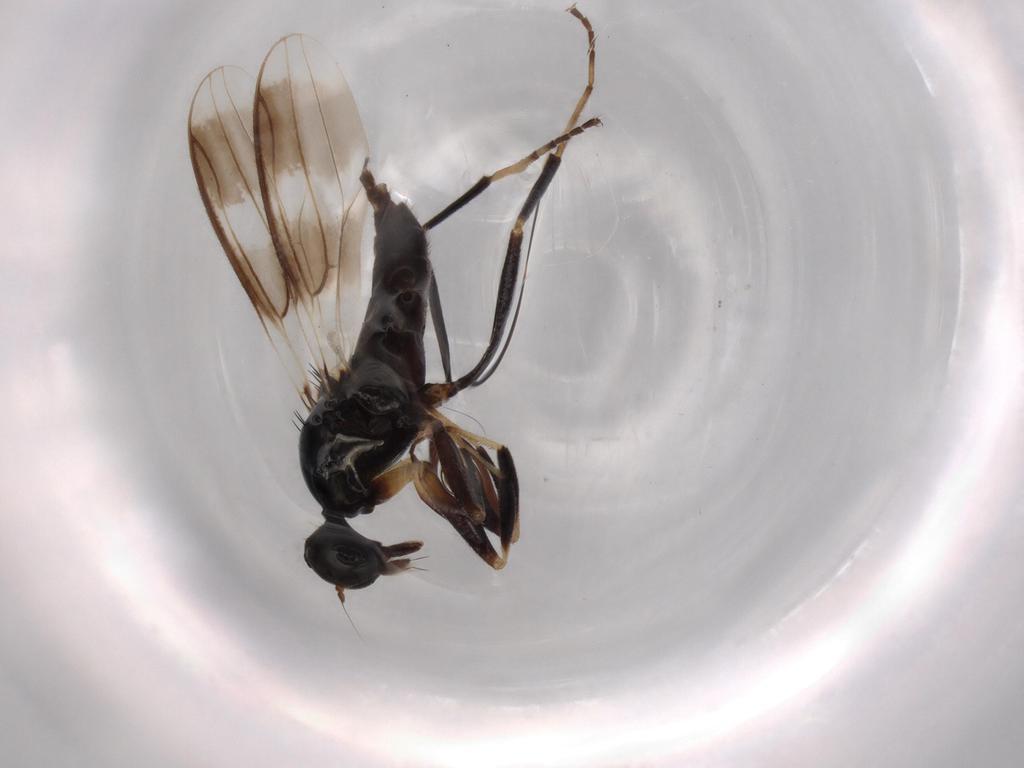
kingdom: Animalia
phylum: Arthropoda
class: Insecta
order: Diptera
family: Hybotidae
